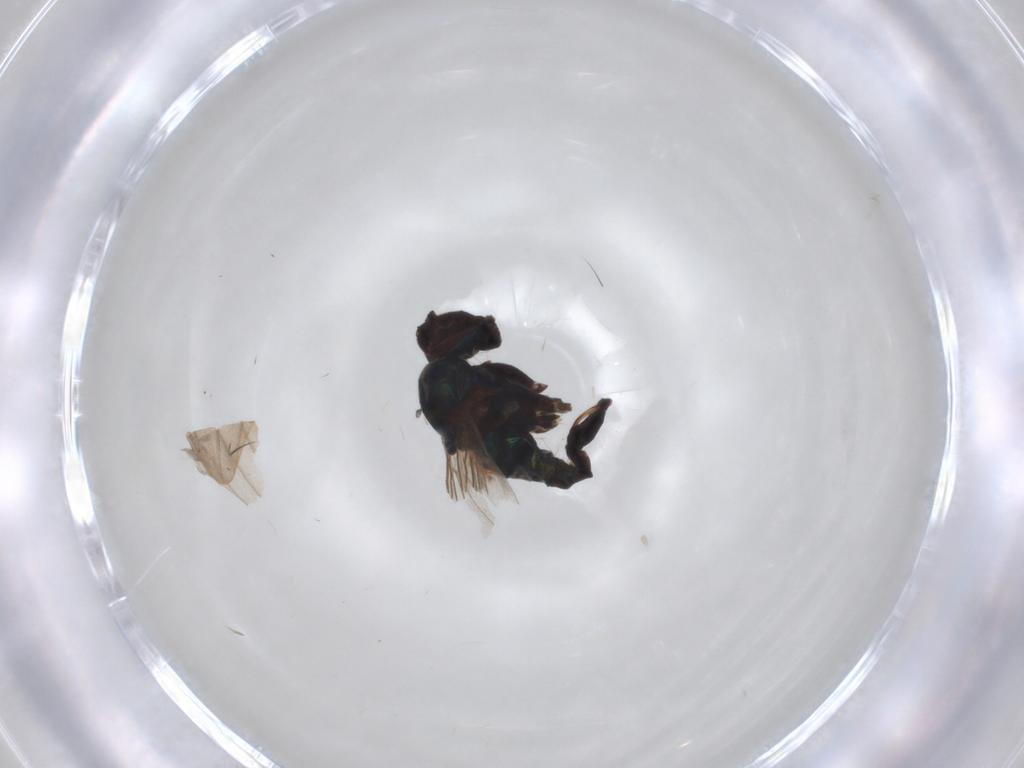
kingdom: Animalia
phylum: Arthropoda
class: Insecta
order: Diptera
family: Dolichopodidae
